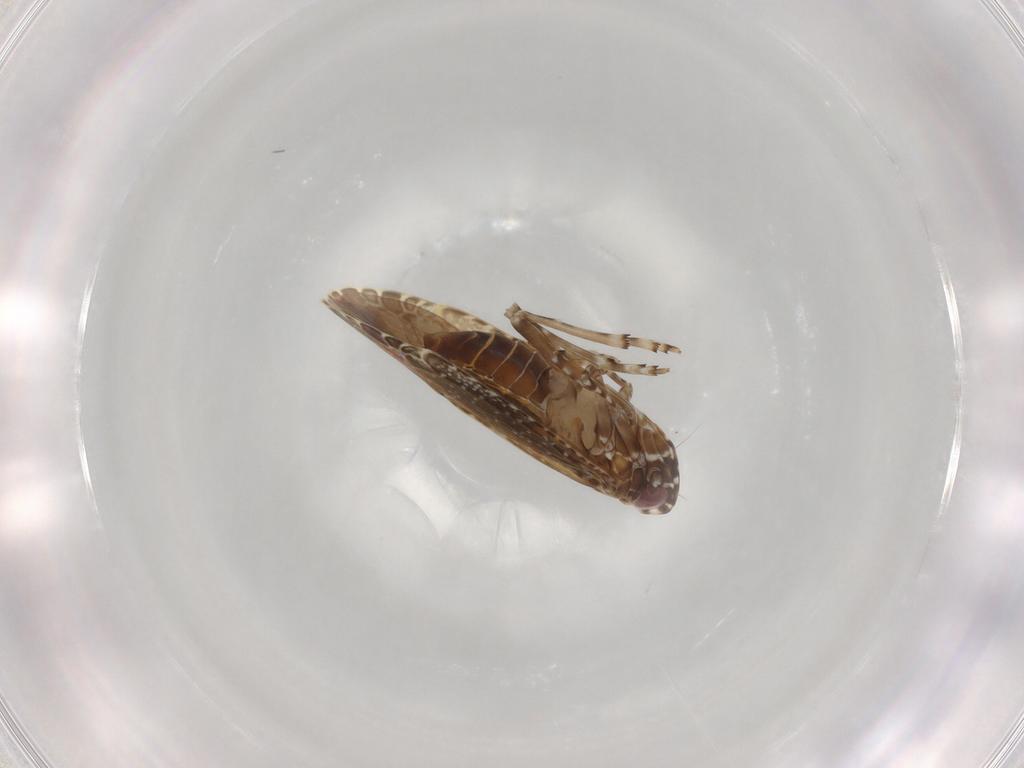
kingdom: Animalia
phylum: Arthropoda
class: Insecta
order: Hemiptera
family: Achilidae
